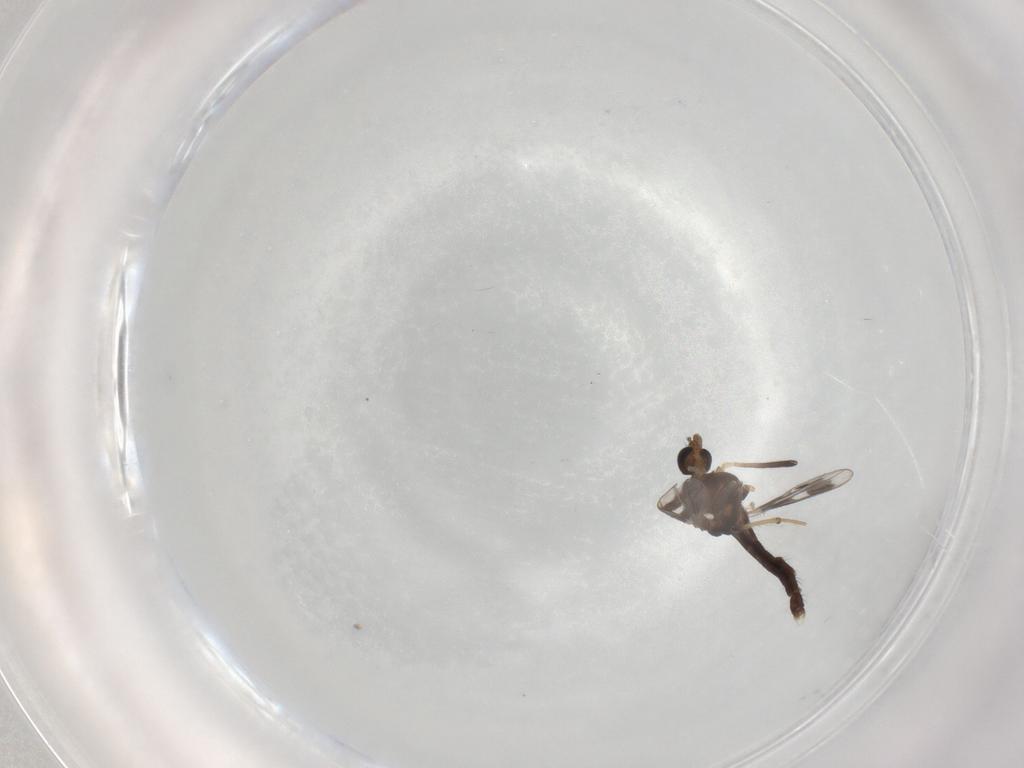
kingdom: Animalia
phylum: Arthropoda
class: Insecta
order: Diptera
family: Chironomidae
